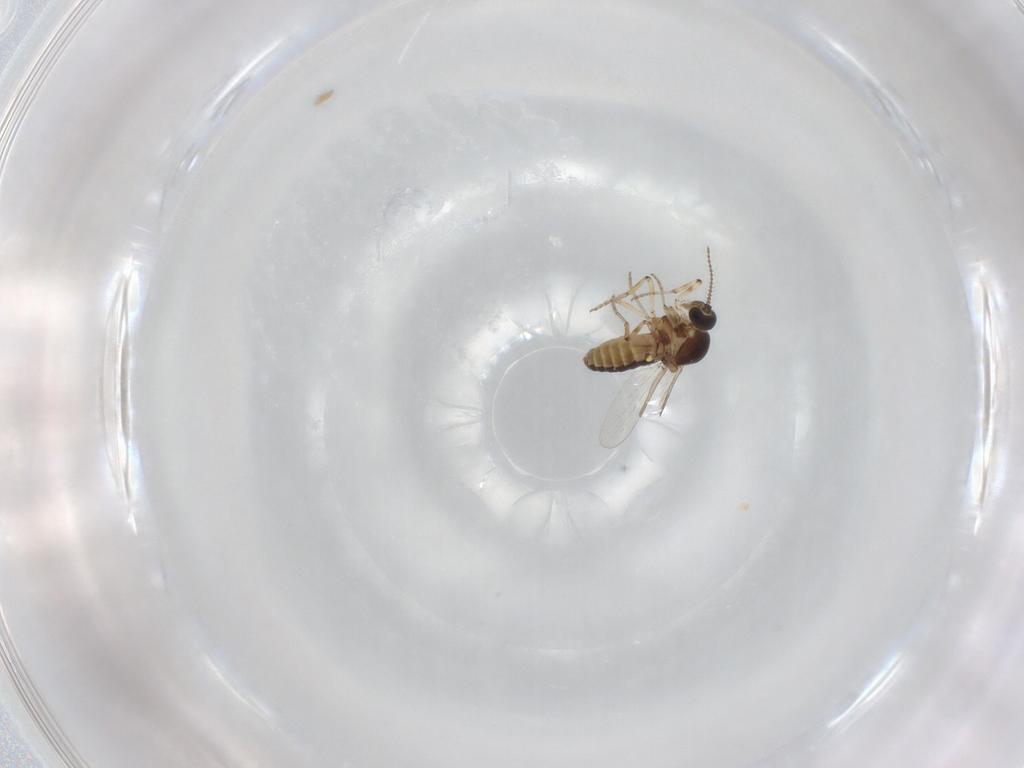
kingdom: Animalia
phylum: Arthropoda
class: Insecta
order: Diptera
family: Ceratopogonidae
